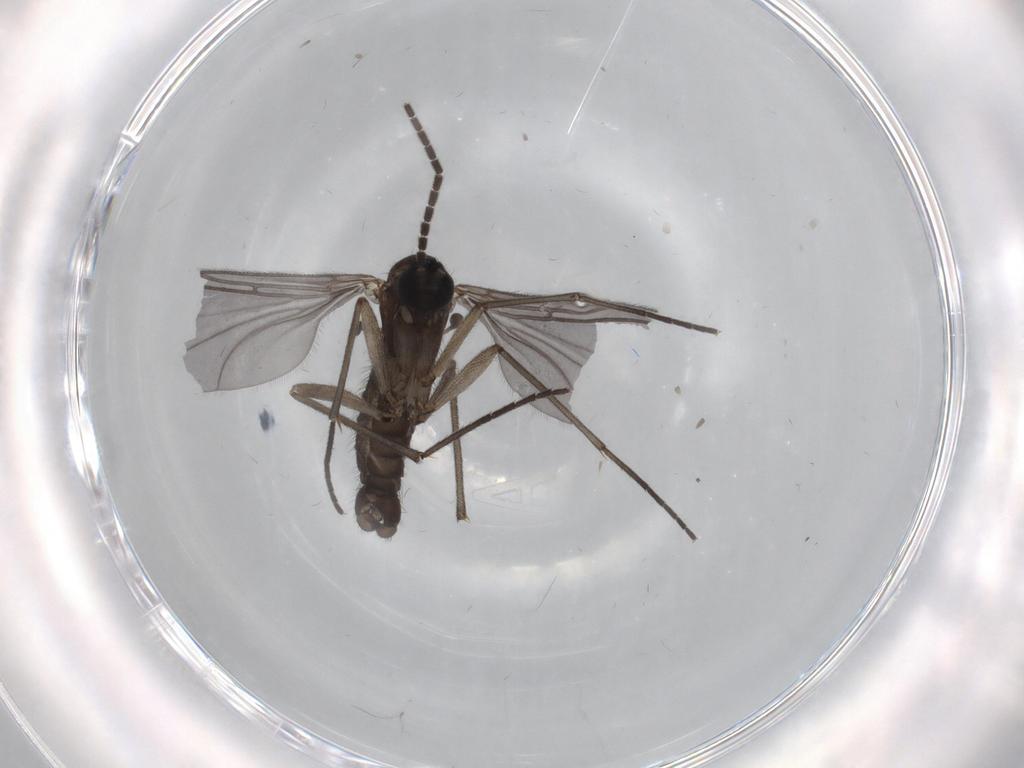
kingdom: Animalia
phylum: Arthropoda
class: Insecta
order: Diptera
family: Sciaridae
